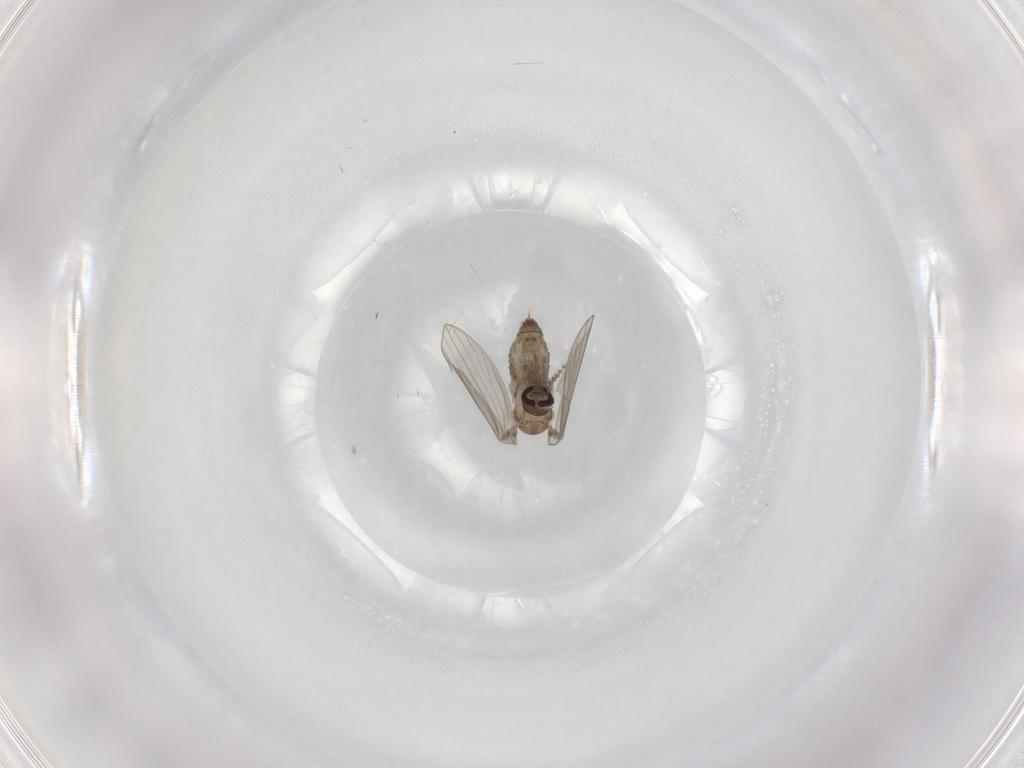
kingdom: Animalia
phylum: Arthropoda
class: Insecta
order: Diptera
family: Psychodidae
